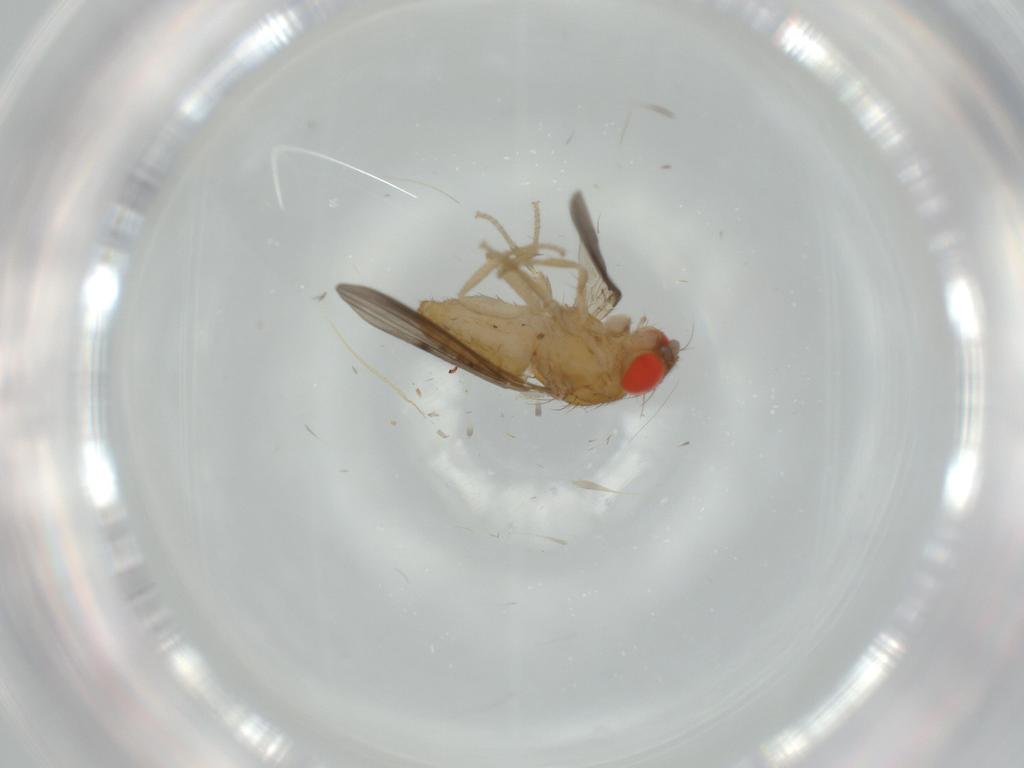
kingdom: Animalia
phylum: Arthropoda
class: Insecta
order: Diptera
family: Drosophilidae
